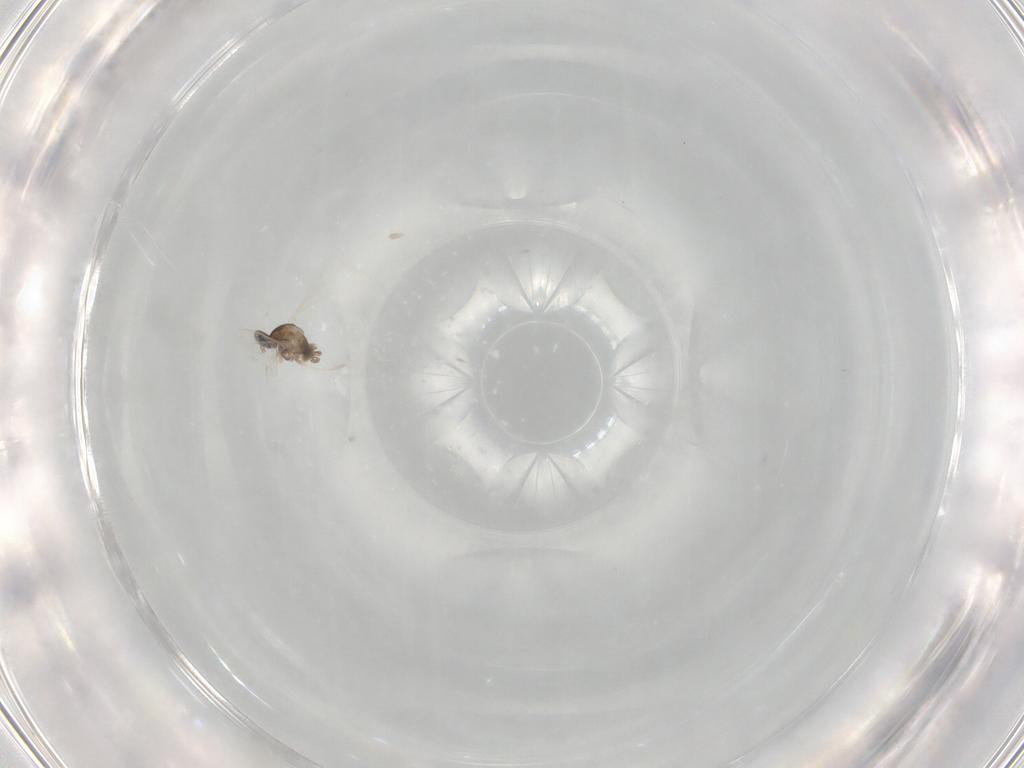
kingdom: Animalia
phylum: Arthropoda
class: Insecta
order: Diptera
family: Cecidomyiidae
